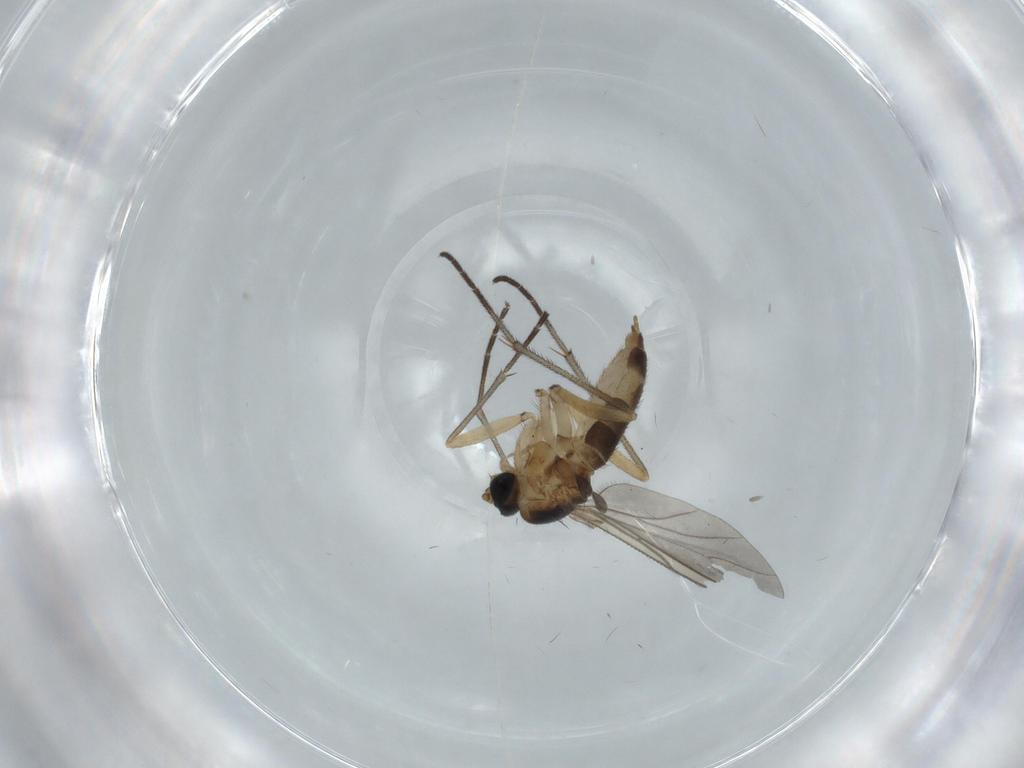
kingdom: Animalia
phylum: Arthropoda
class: Insecta
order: Diptera
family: Sciaridae
